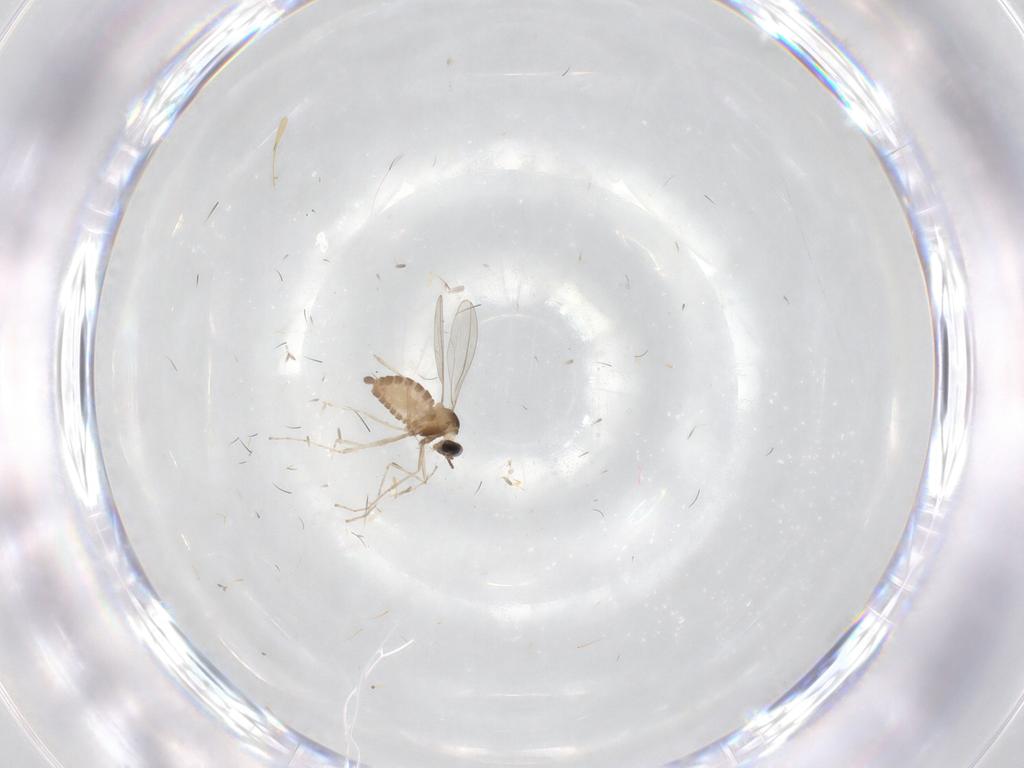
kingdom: Animalia
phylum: Arthropoda
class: Insecta
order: Diptera
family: Cecidomyiidae
